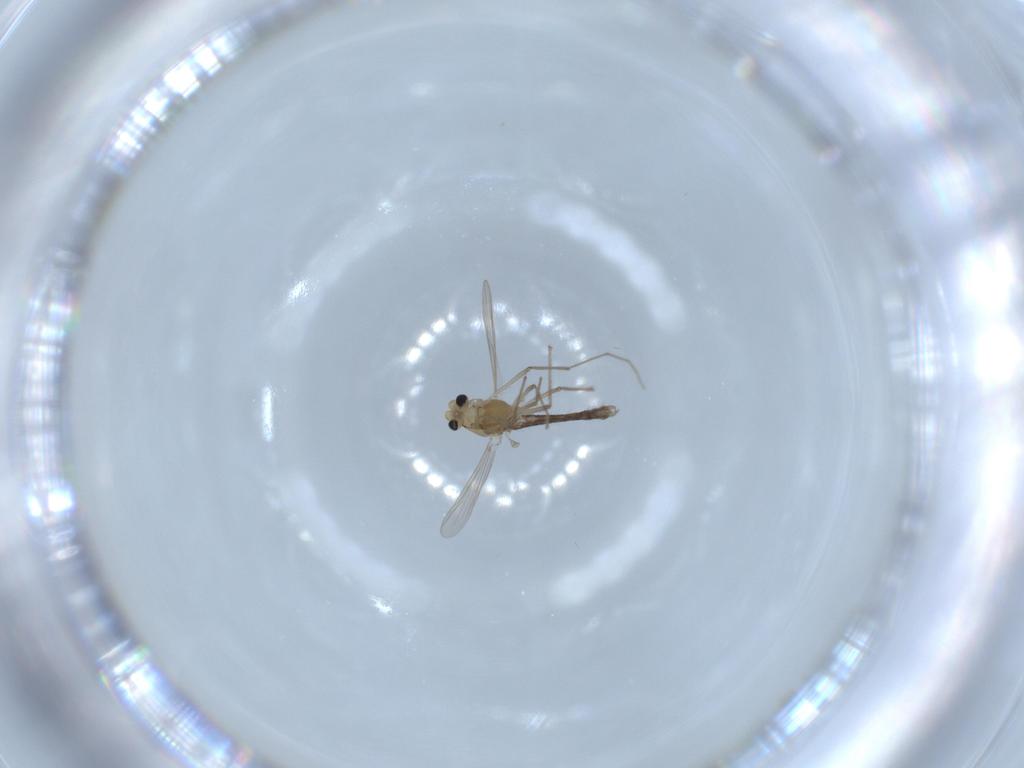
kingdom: Animalia
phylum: Arthropoda
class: Insecta
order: Diptera
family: Chironomidae
